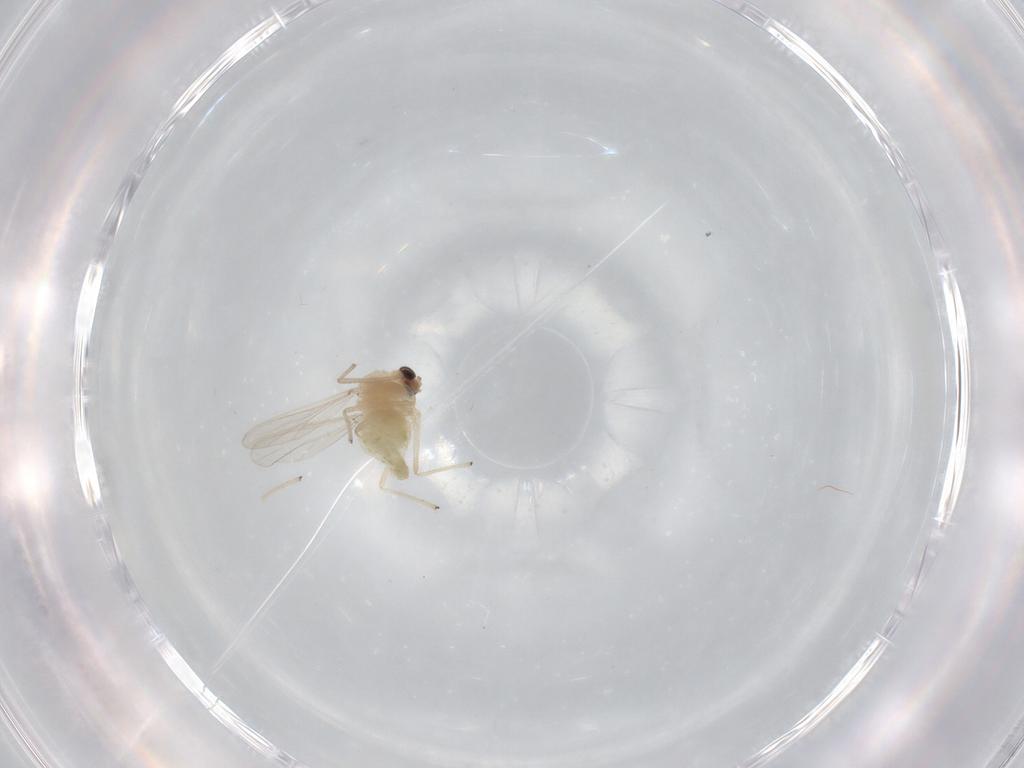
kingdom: Animalia
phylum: Arthropoda
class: Insecta
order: Diptera
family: Chironomidae
